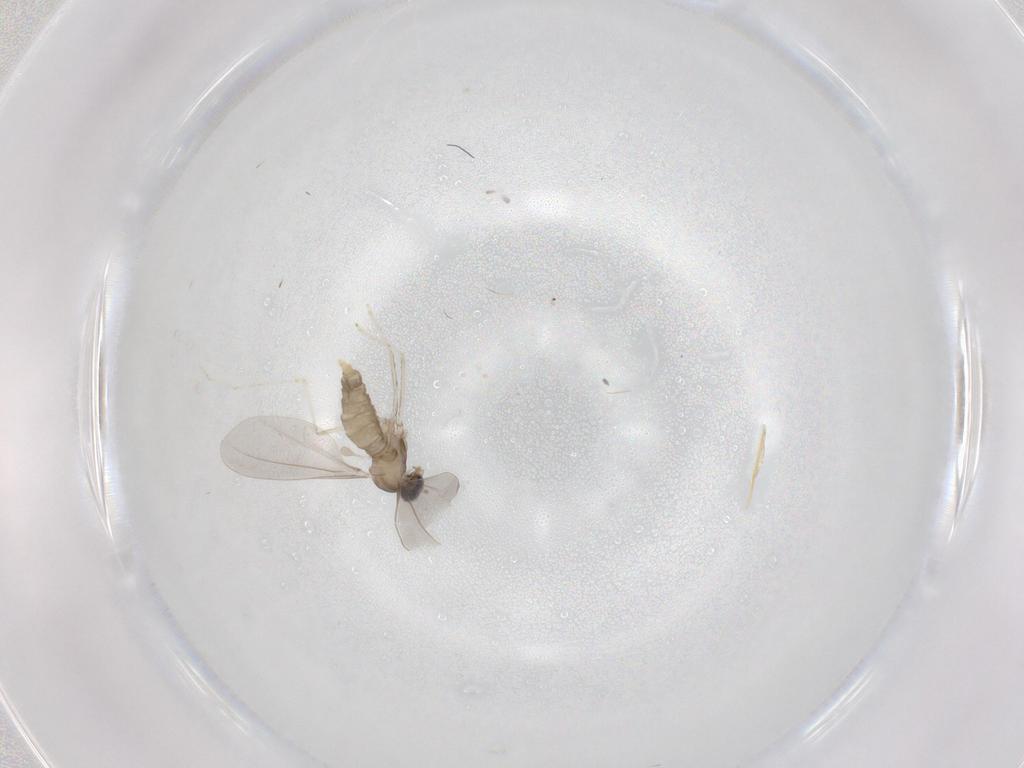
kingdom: Animalia
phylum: Arthropoda
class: Insecta
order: Diptera
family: Cecidomyiidae
